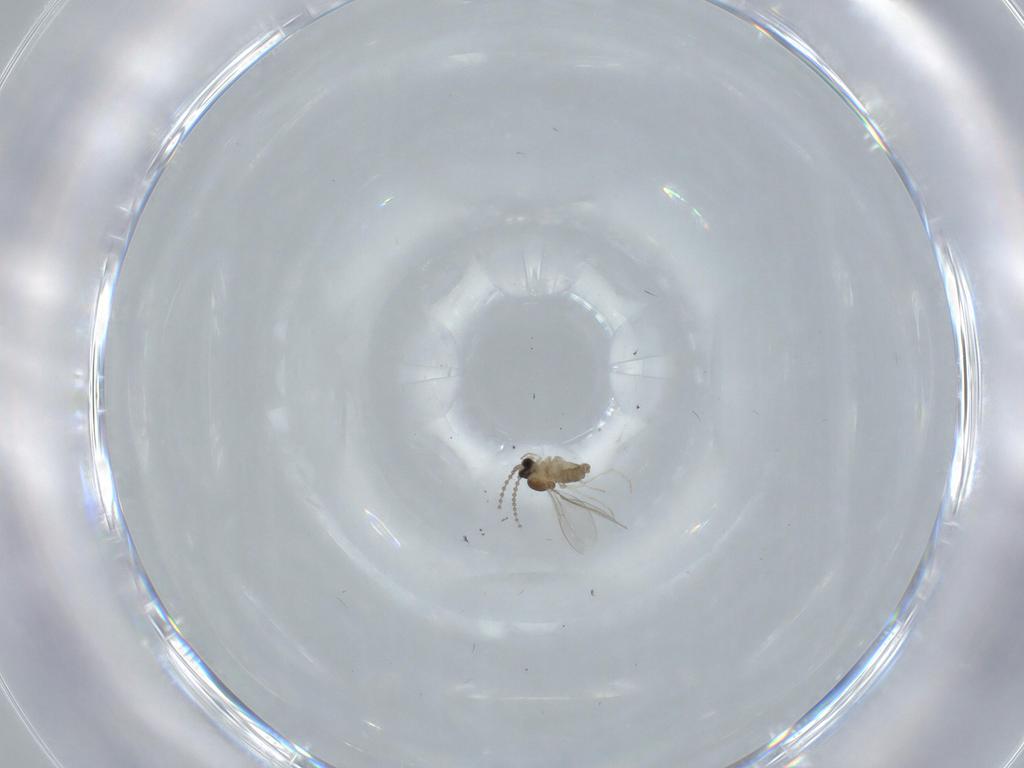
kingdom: Animalia
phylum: Arthropoda
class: Insecta
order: Diptera
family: Cecidomyiidae
